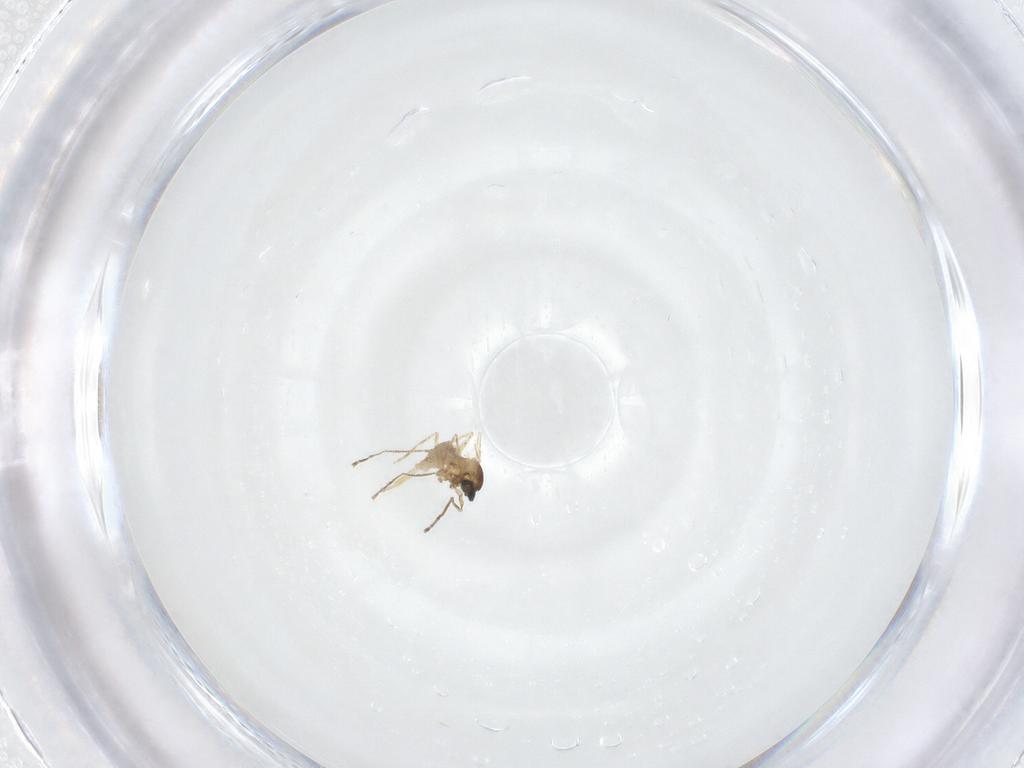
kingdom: Animalia
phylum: Arthropoda
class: Insecta
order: Diptera
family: Cecidomyiidae
